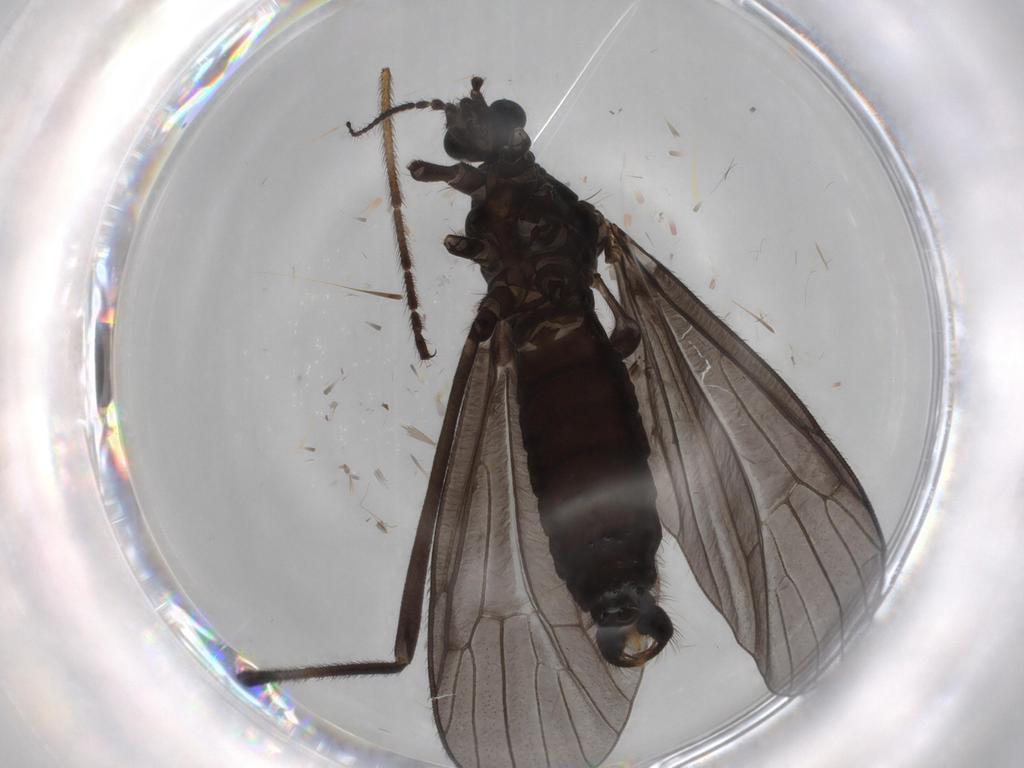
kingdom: Animalia
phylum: Arthropoda
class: Insecta
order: Diptera
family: Limoniidae
